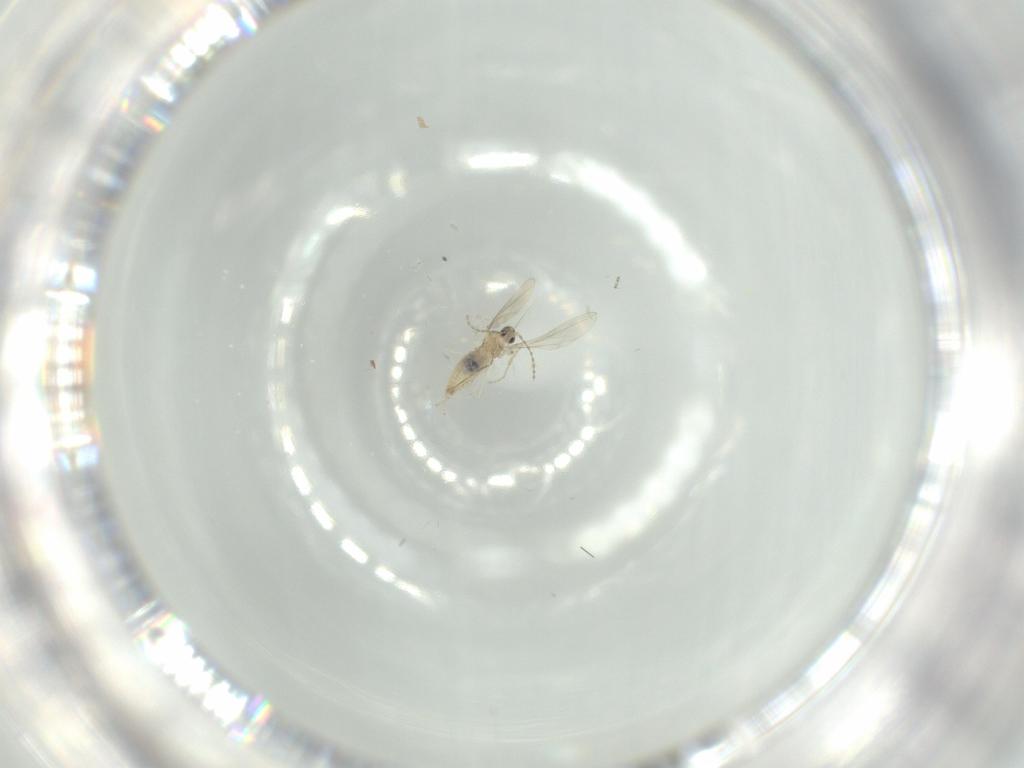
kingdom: Animalia
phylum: Arthropoda
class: Insecta
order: Diptera
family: Cecidomyiidae
